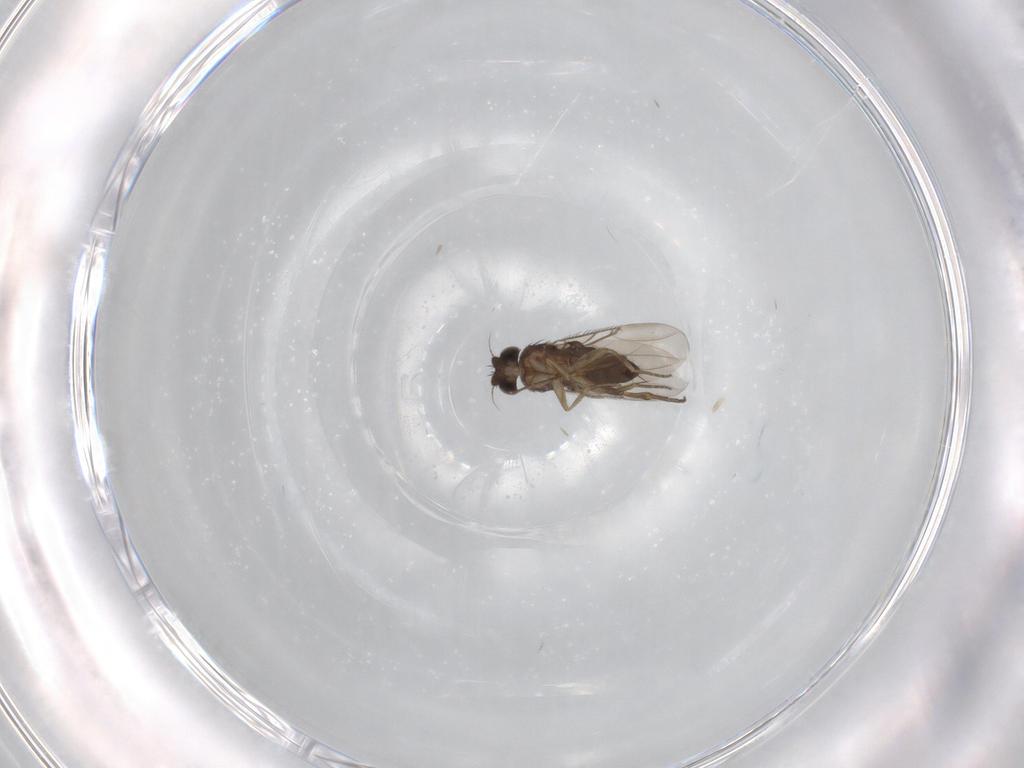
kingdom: Animalia
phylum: Arthropoda
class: Insecta
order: Diptera
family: Phoridae
